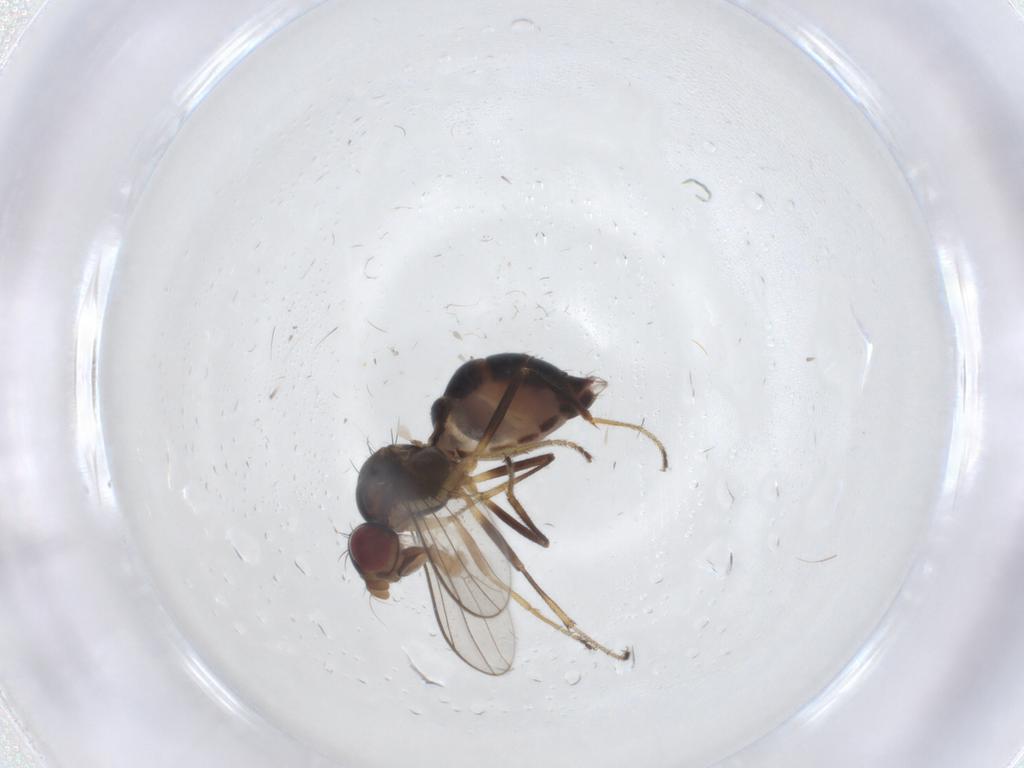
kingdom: Animalia
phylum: Arthropoda
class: Insecta
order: Diptera
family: Sepsidae
